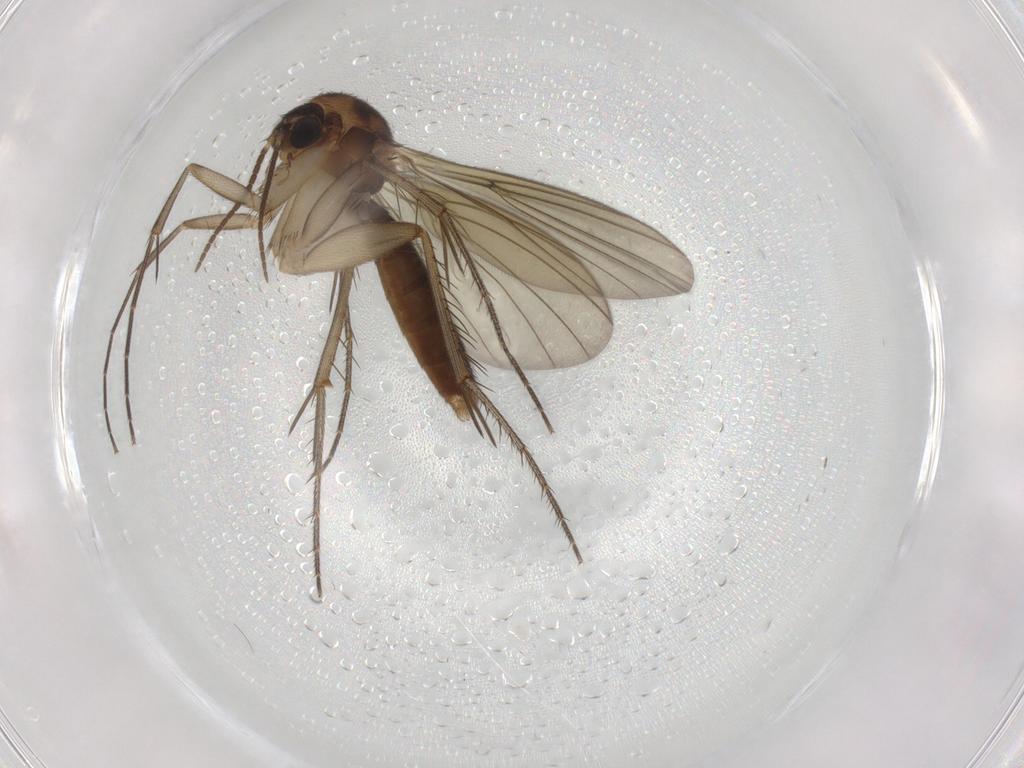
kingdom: Animalia
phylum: Arthropoda
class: Insecta
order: Diptera
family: Mycetophilidae
